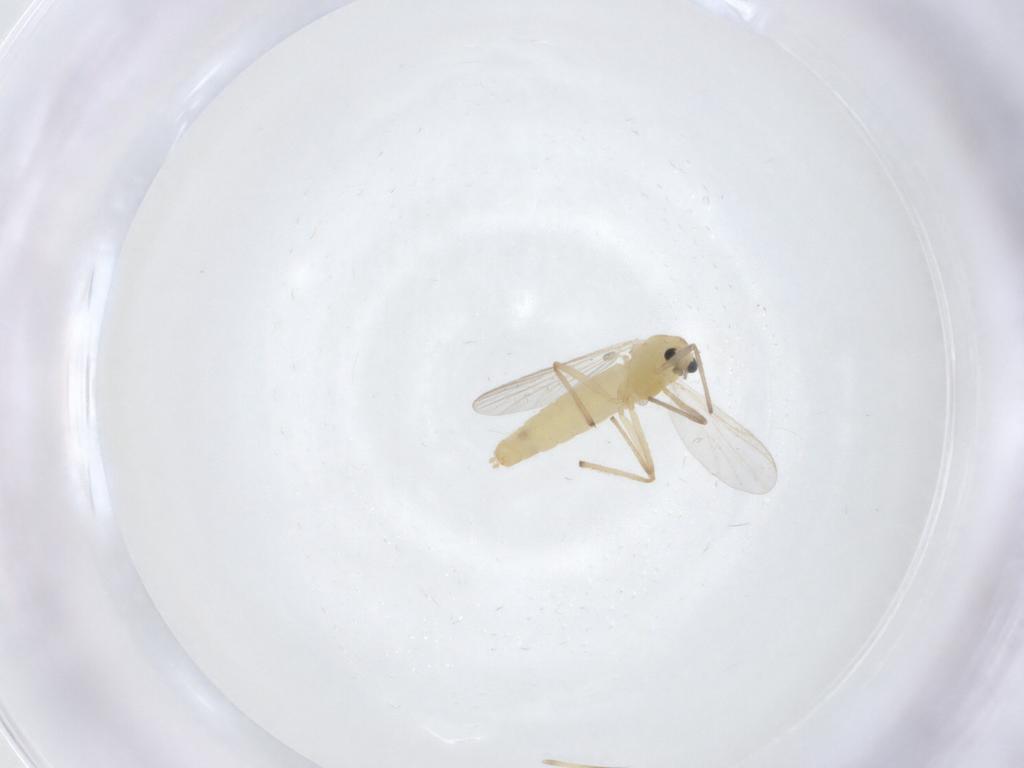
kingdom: Animalia
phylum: Arthropoda
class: Insecta
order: Diptera
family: Chironomidae
